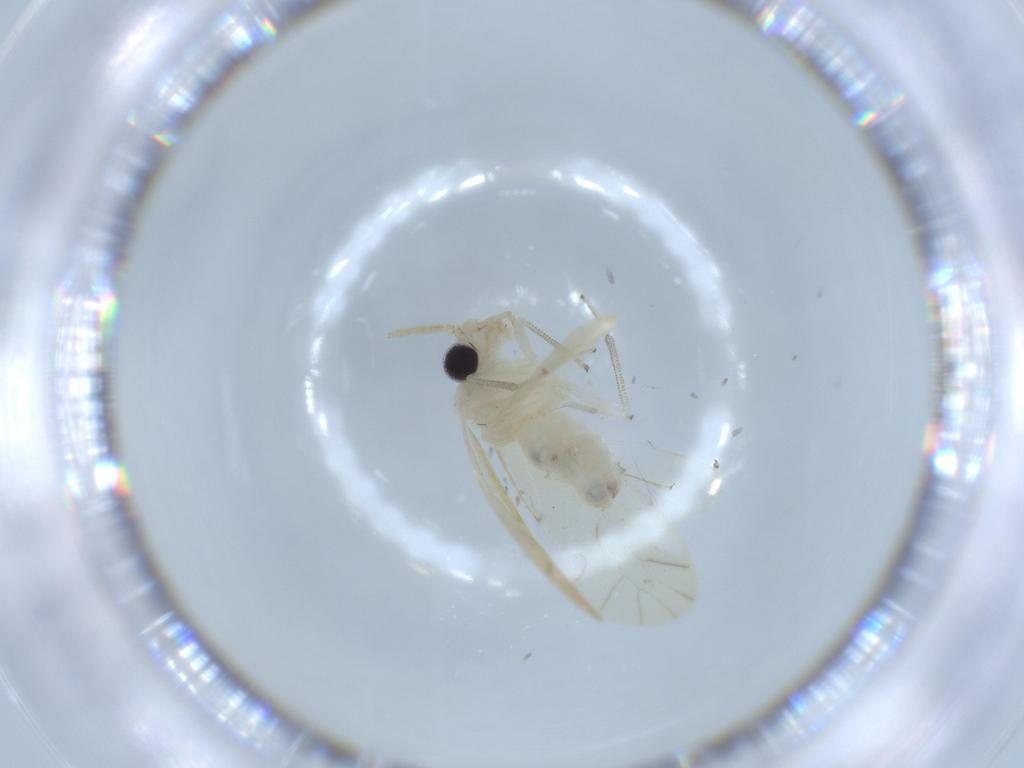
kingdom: Animalia
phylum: Arthropoda
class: Insecta
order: Psocodea
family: Caeciliusidae
